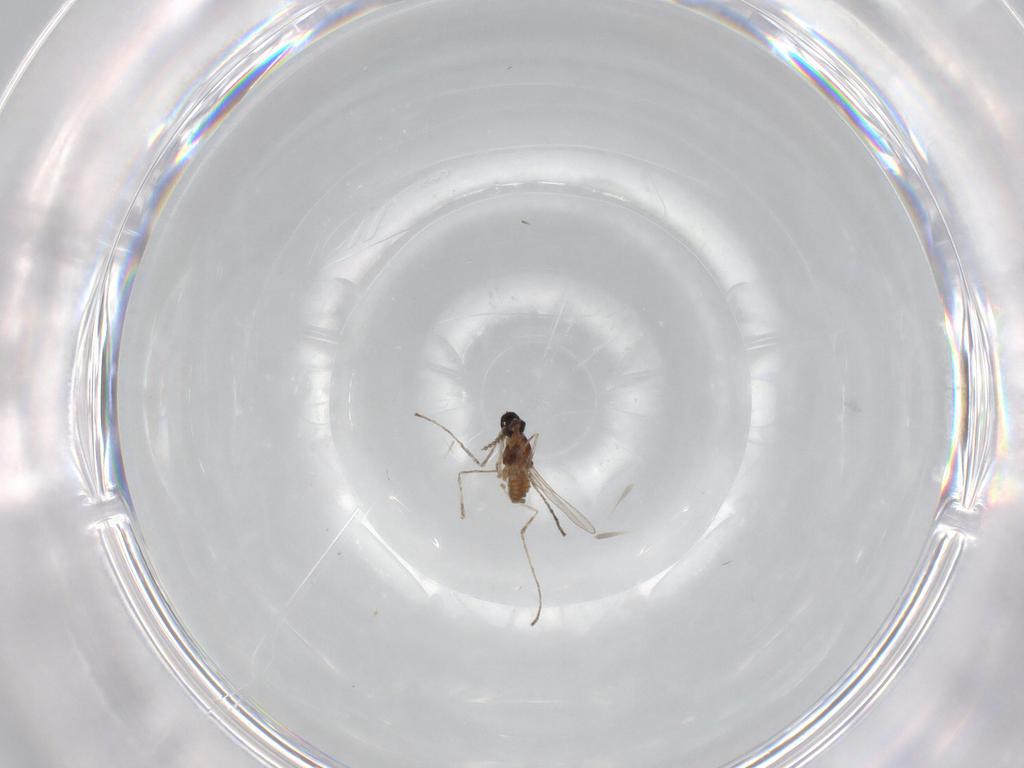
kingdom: Animalia
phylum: Arthropoda
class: Insecta
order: Diptera
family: Cecidomyiidae
